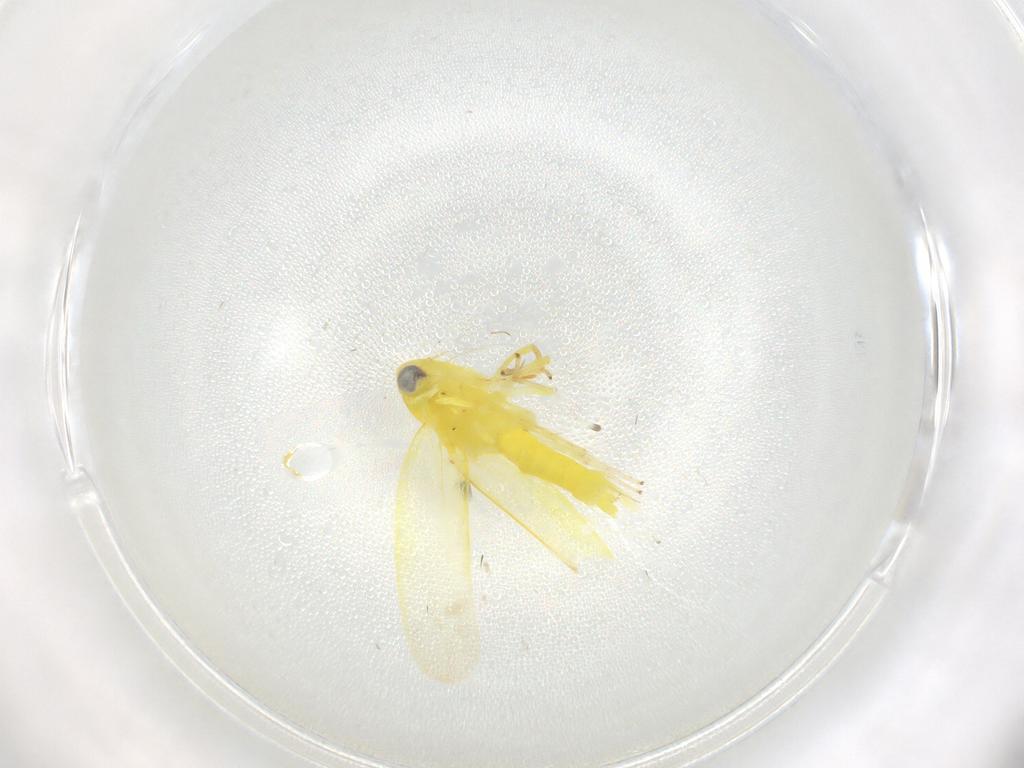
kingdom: Animalia
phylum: Arthropoda
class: Insecta
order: Hemiptera
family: Cicadellidae
